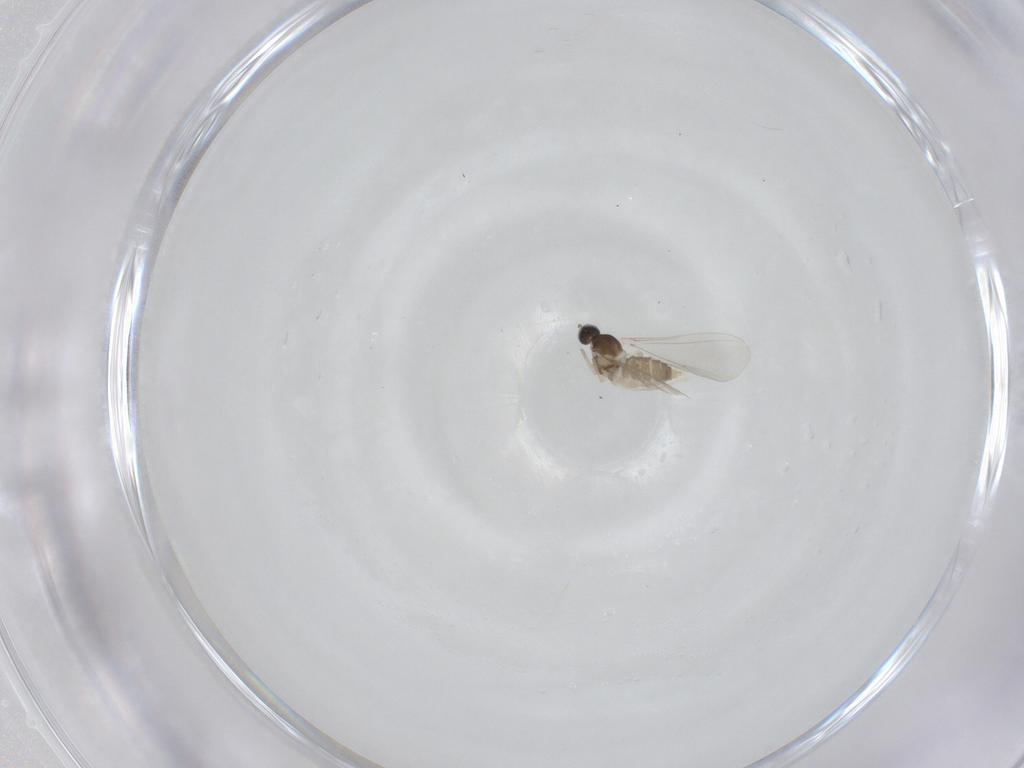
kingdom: Animalia
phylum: Arthropoda
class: Insecta
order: Diptera
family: Cecidomyiidae
